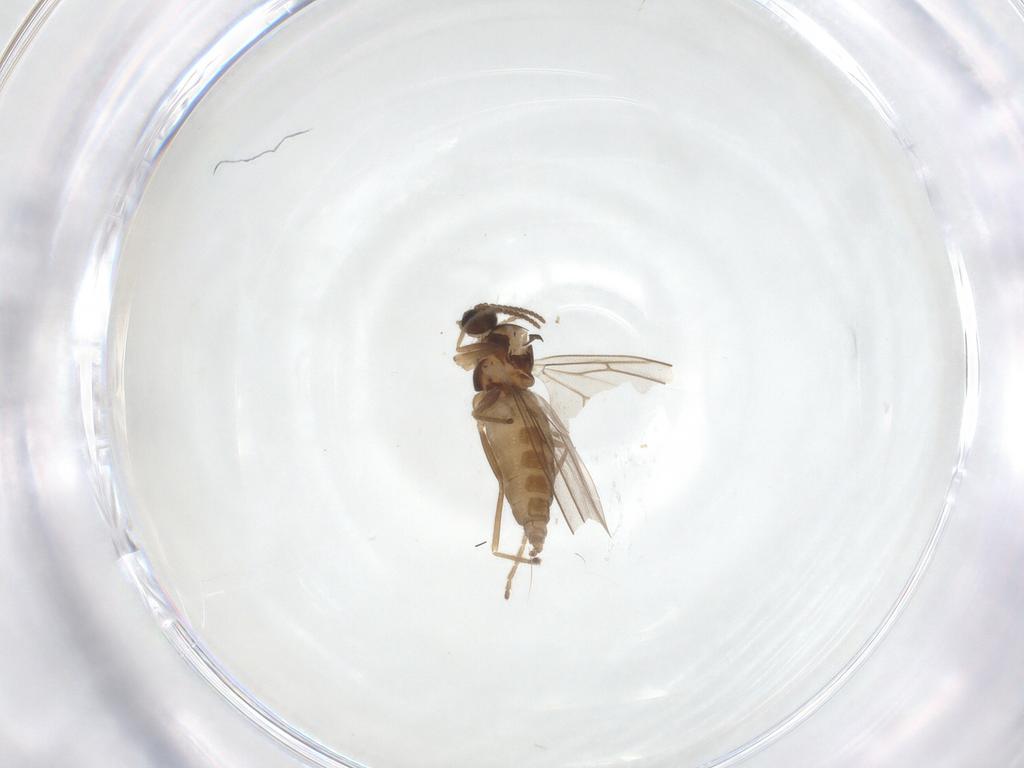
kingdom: Animalia
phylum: Arthropoda
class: Insecta
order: Diptera
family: Cecidomyiidae
